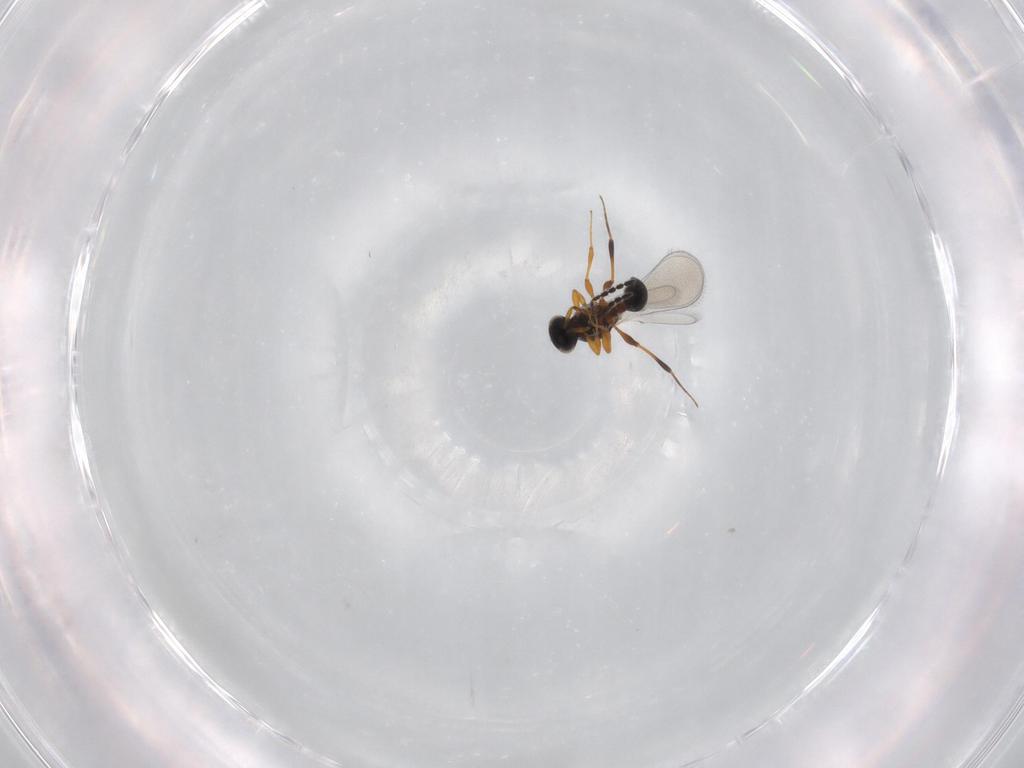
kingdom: Animalia
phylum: Arthropoda
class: Insecta
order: Hymenoptera
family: Platygastridae
